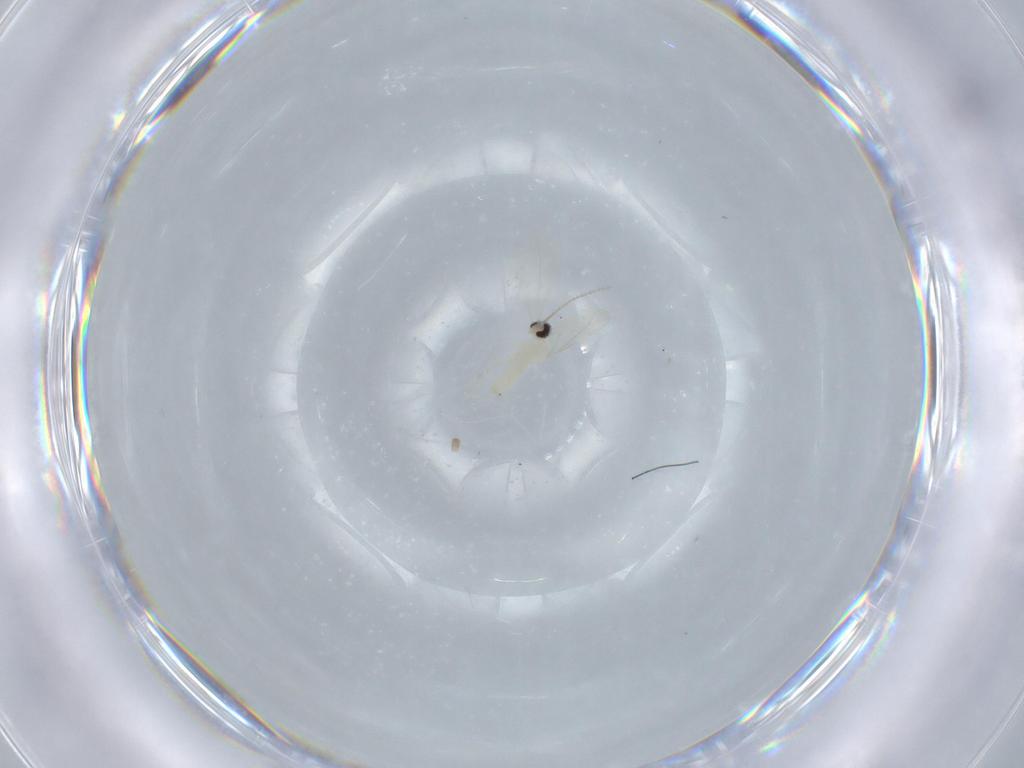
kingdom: Animalia
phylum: Arthropoda
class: Insecta
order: Diptera
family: Cecidomyiidae
